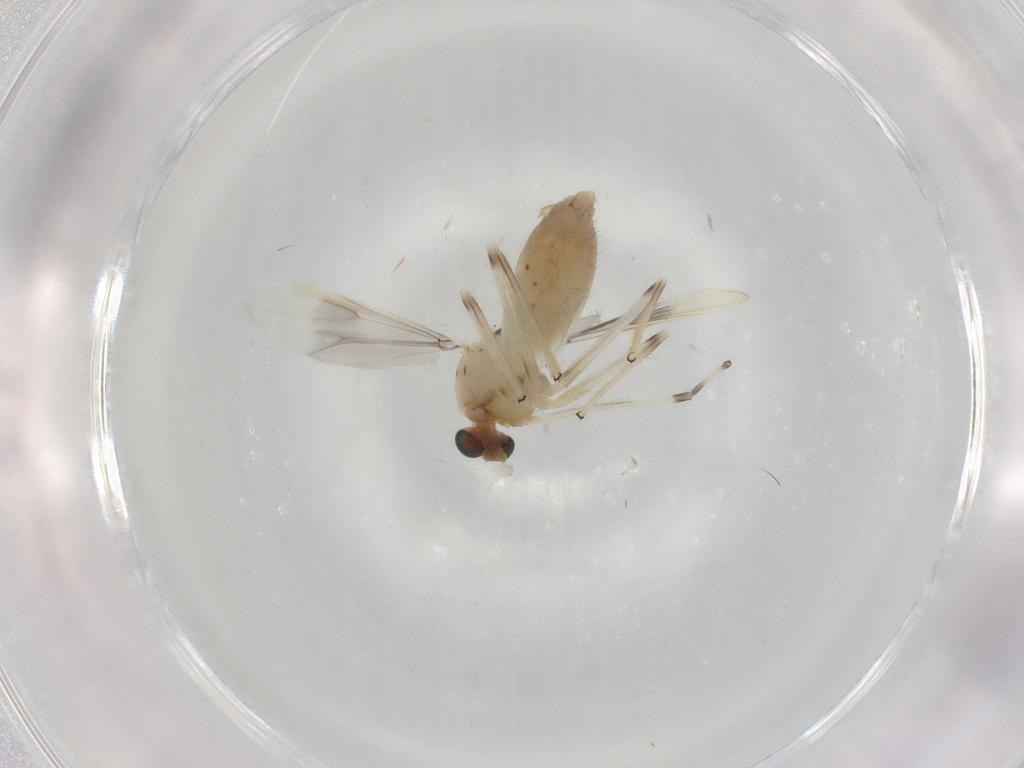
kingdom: Animalia
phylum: Arthropoda
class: Insecta
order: Diptera
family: Chironomidae
